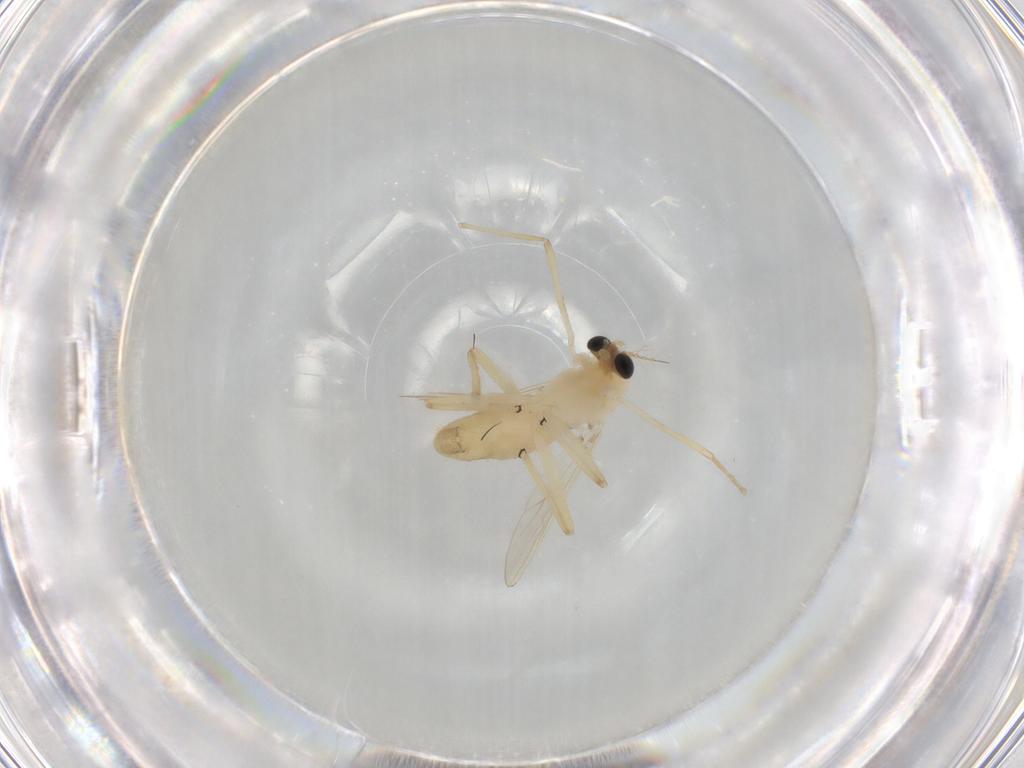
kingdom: Animalia
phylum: Arthropoda
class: Insecta
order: Diptera
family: Chironomidae
